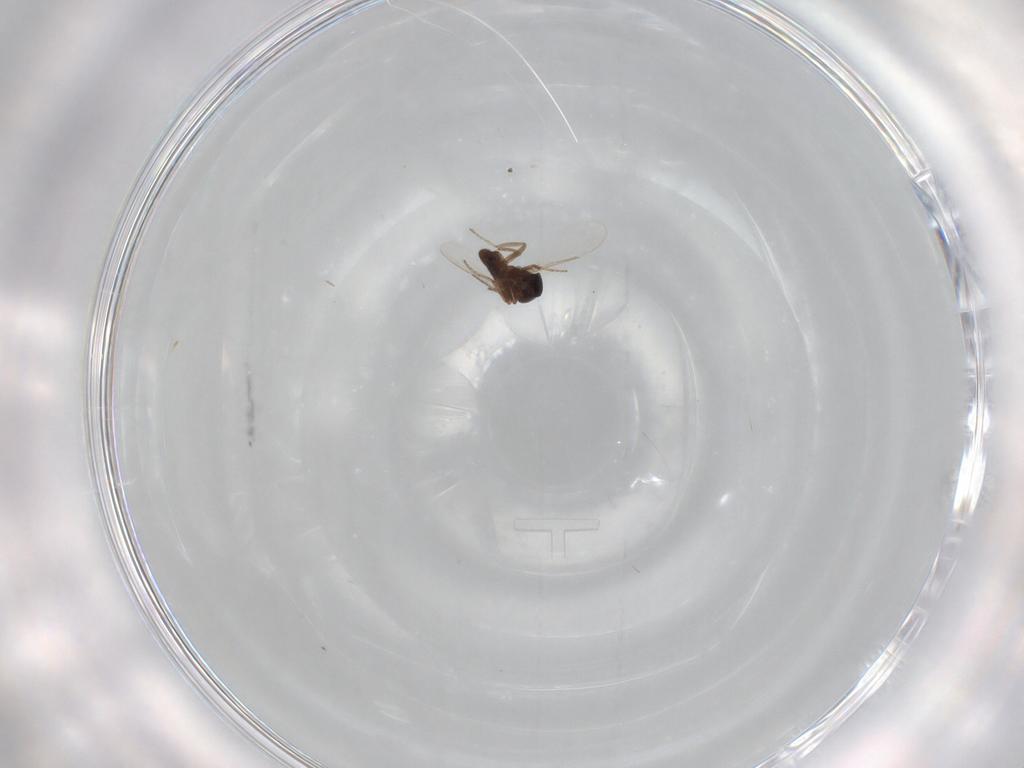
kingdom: Animalia
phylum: Arthropoda
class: Insecta
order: Diptera
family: Ceratopogonidae
